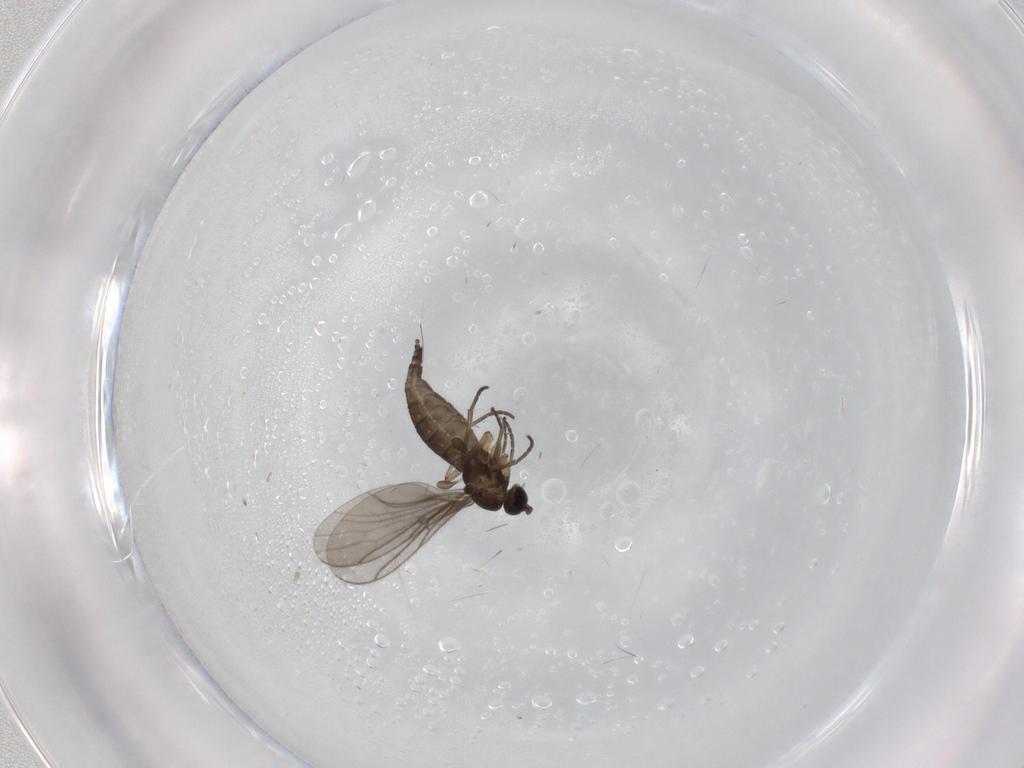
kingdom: Animalia
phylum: Arthropoda
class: Insecta
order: Diptera
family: Sciaridae
